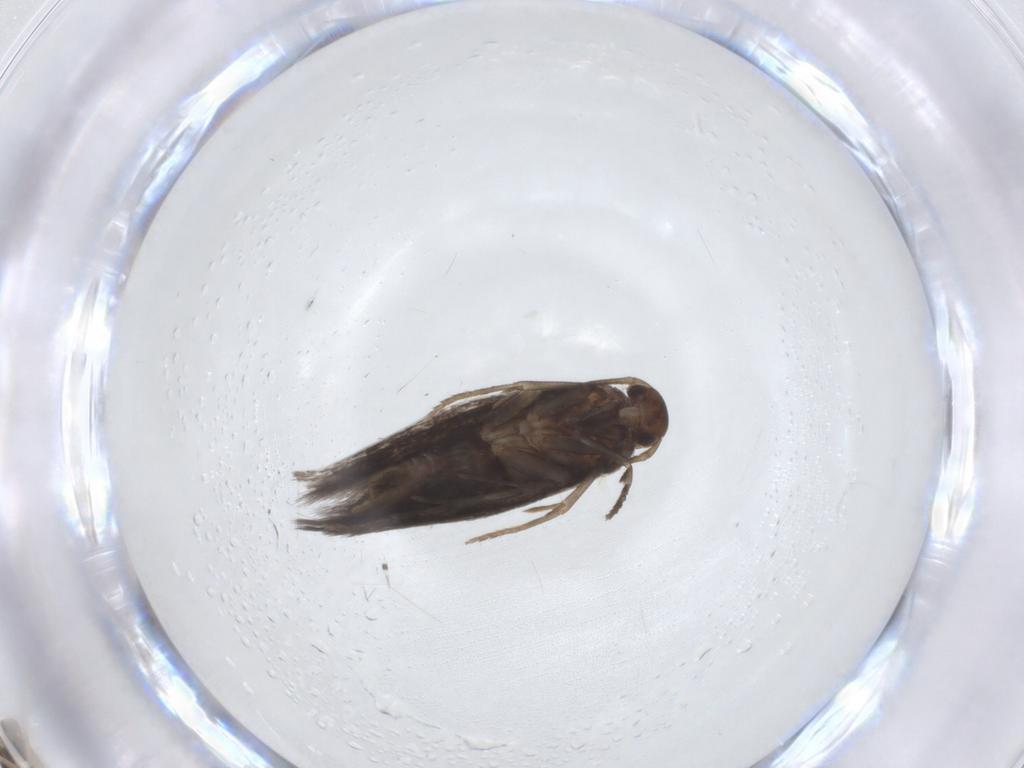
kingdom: Animalia
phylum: Arthropoda
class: Insecta
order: Lepidoptera
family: Elachistidae
